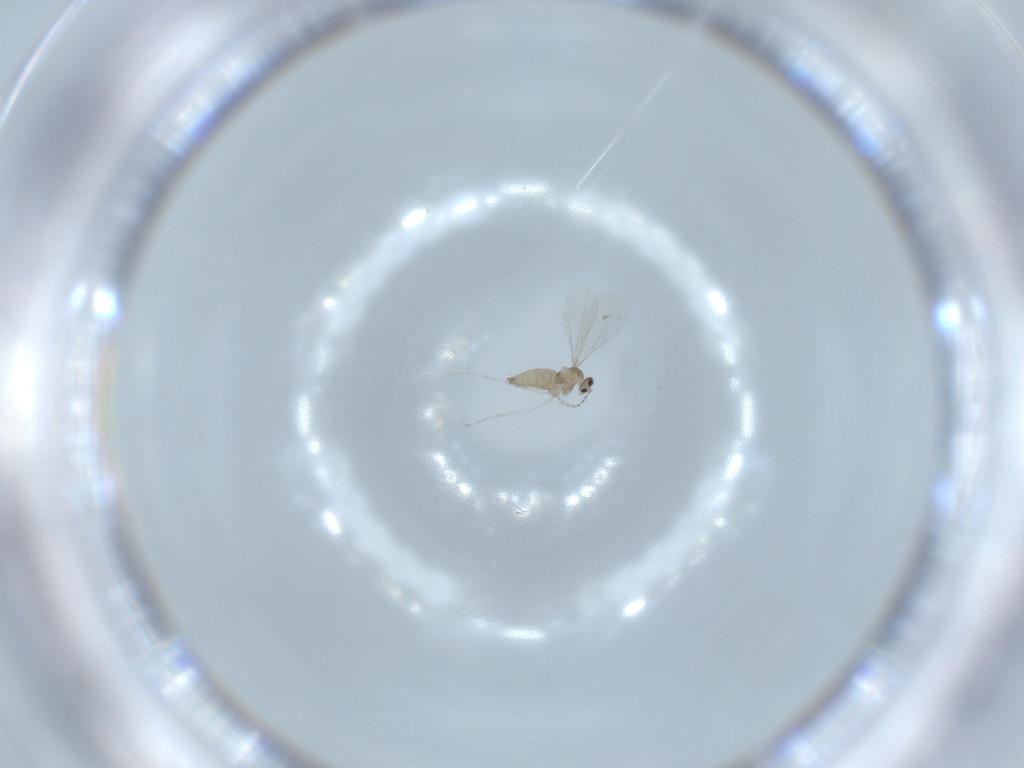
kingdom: Animalia
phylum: Arthropoda
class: Insecta
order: Diptera
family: Cecidomyiidae
